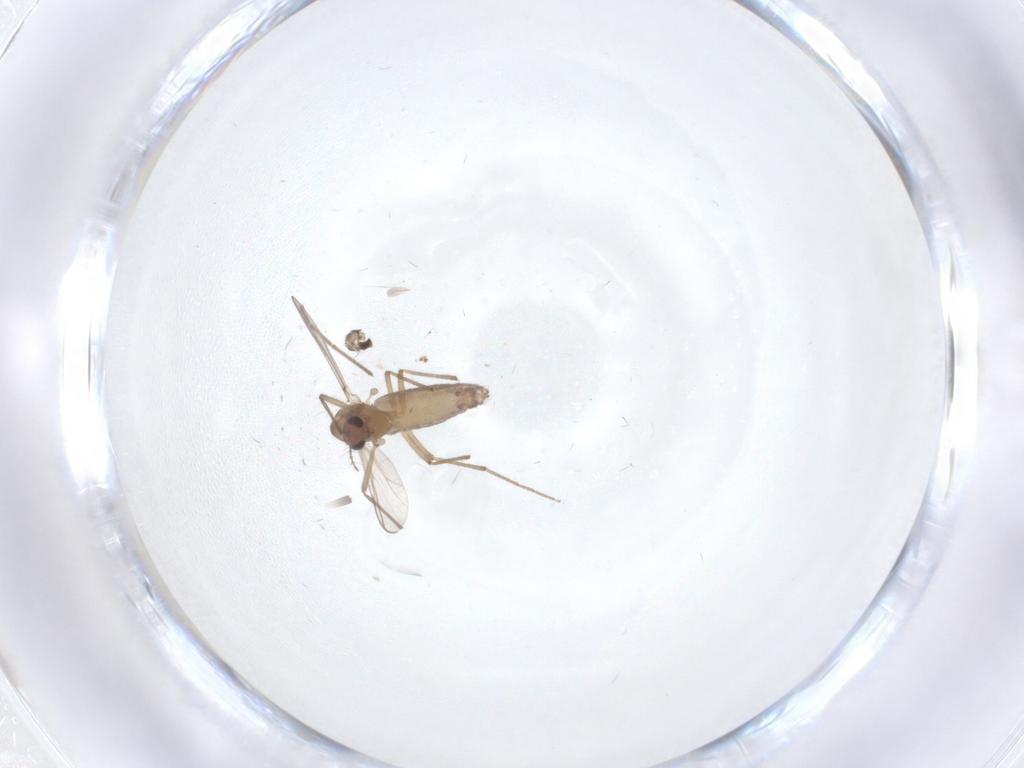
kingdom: Animalia
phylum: Arthropoda
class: Insecta
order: Diptera
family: Chironomidae
